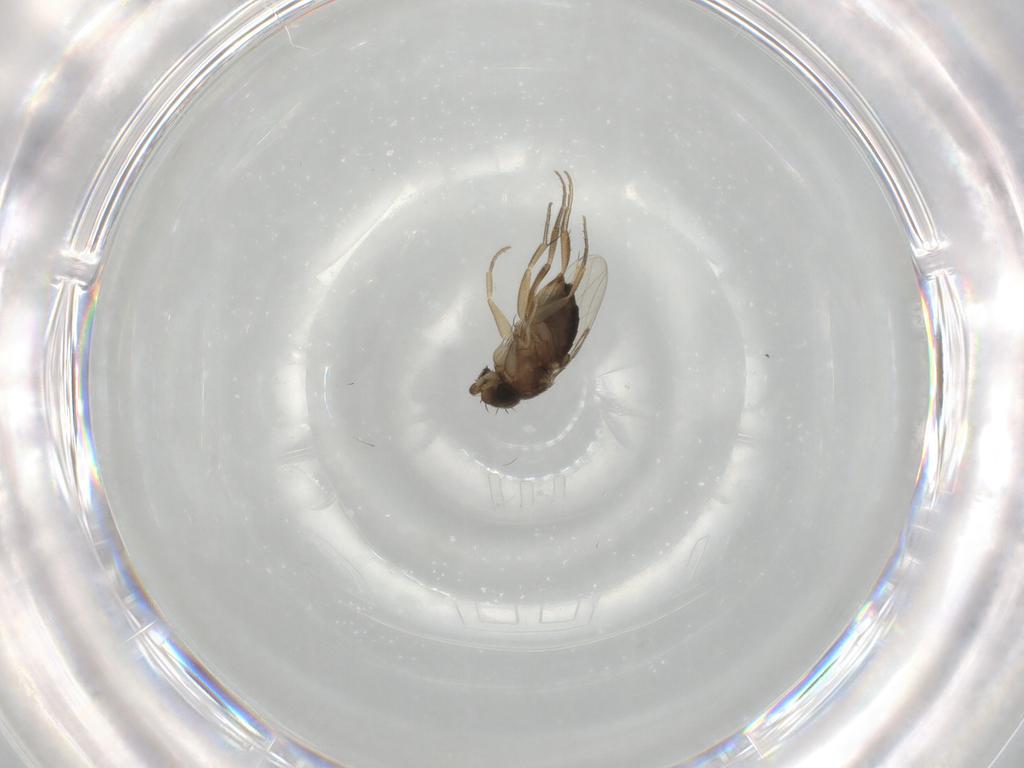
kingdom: Animalia
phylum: Arthropoda
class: Insecta
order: Diptera
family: Phoridae
